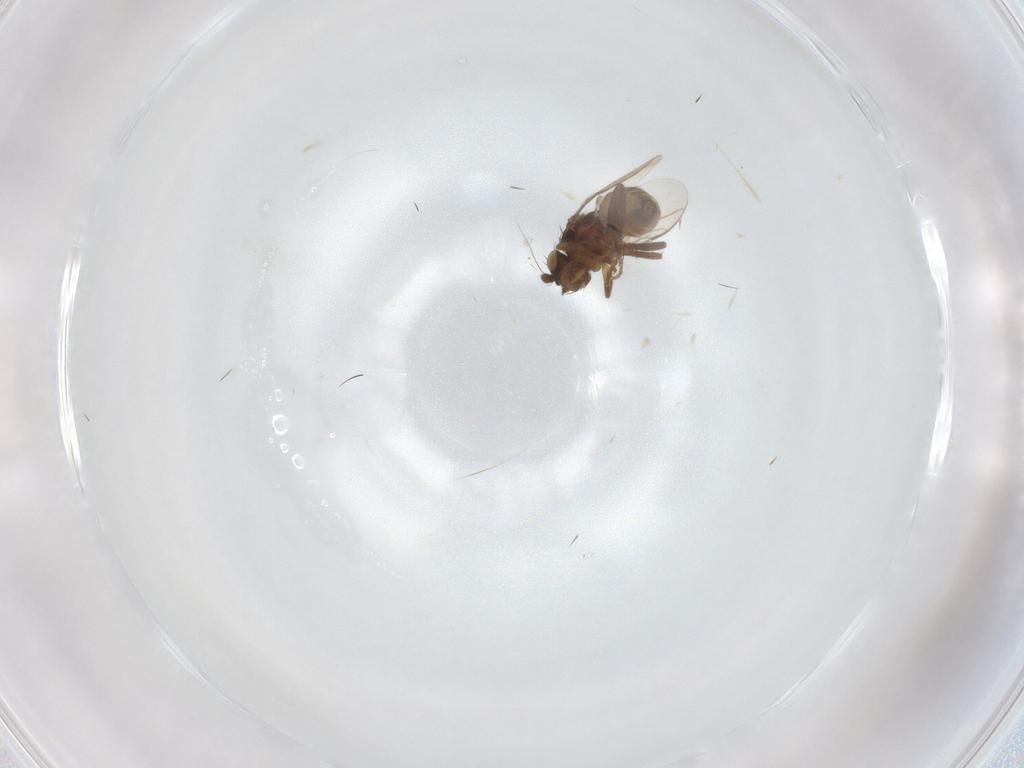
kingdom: Animalia
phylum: Arthropoda
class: Insecta
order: Diptera
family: Sphaeroceridae
